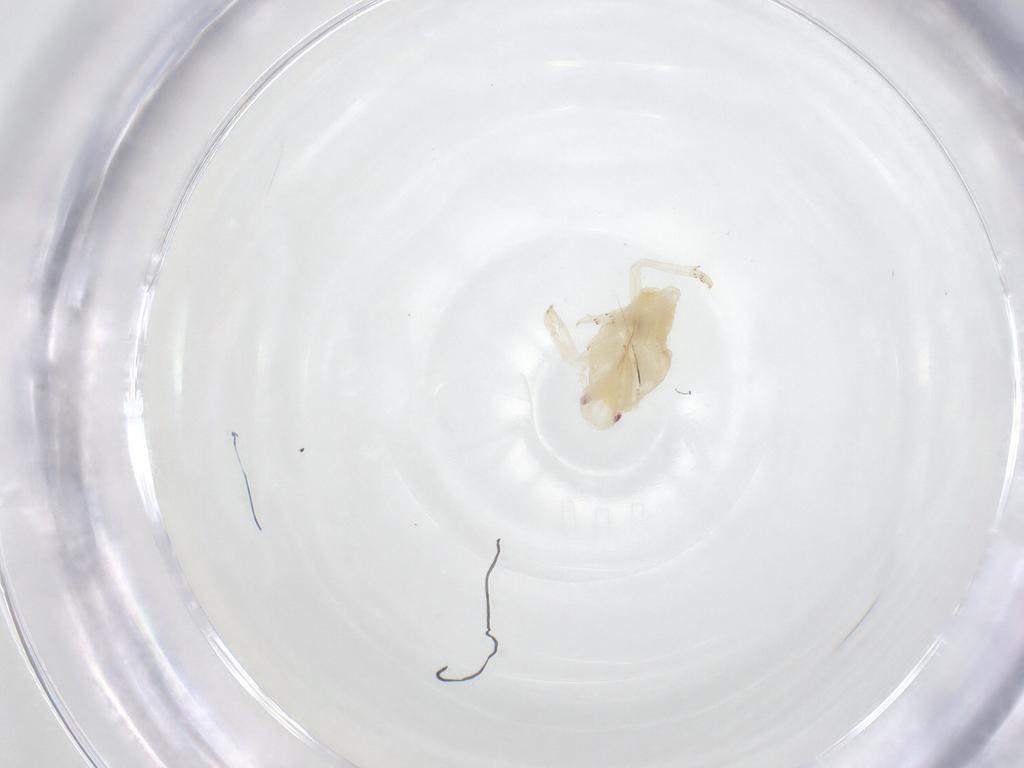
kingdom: Animalia
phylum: Arthropoda
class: Insecta
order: Hemiptera
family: Flatidae
